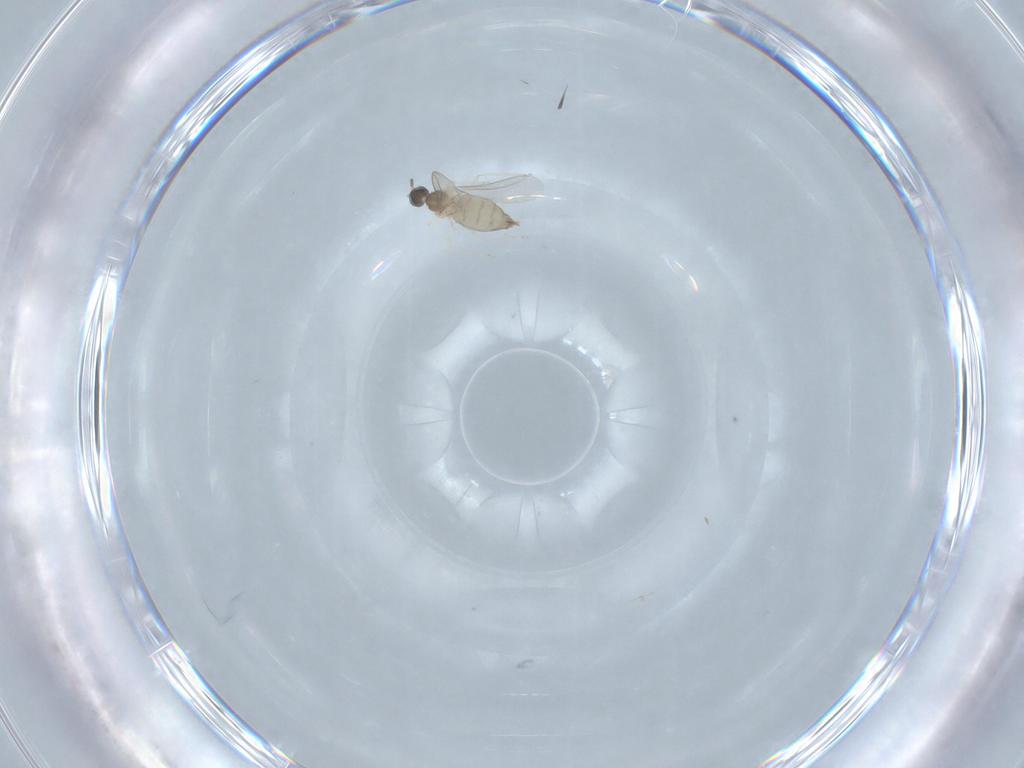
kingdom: Animalia
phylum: Arthropoda
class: Insecta
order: Diptera
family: Cecidomyiidae
